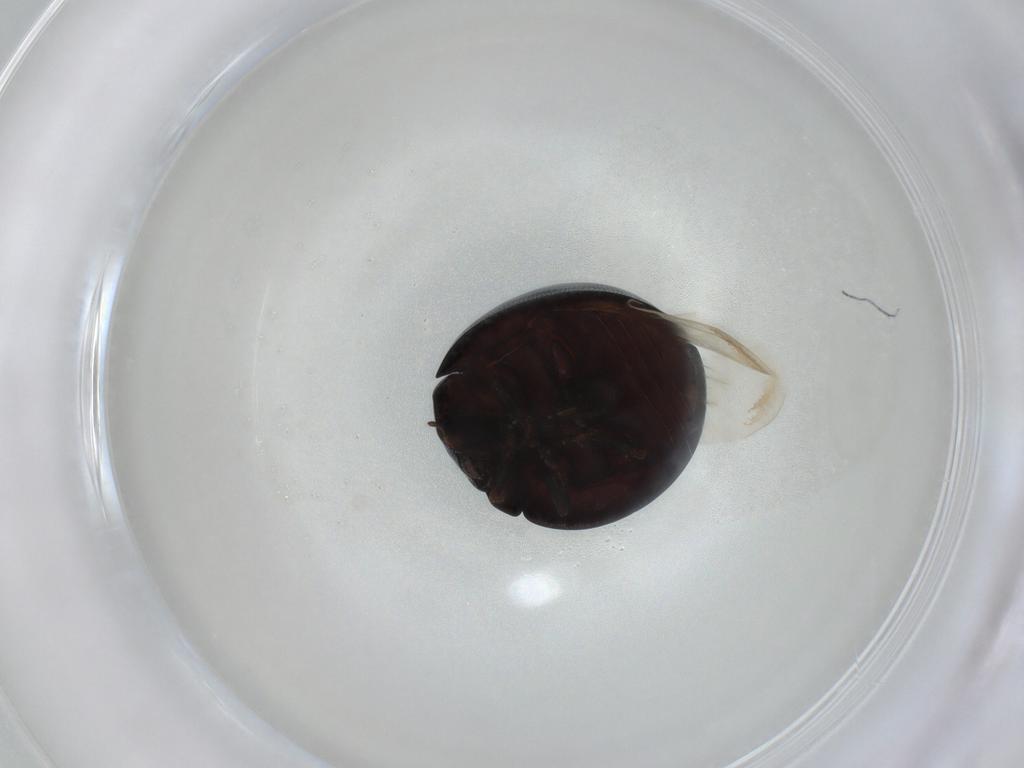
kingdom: Animalia
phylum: Arthropoda
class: Insecta
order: Coleoptera
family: Coccinellidae
